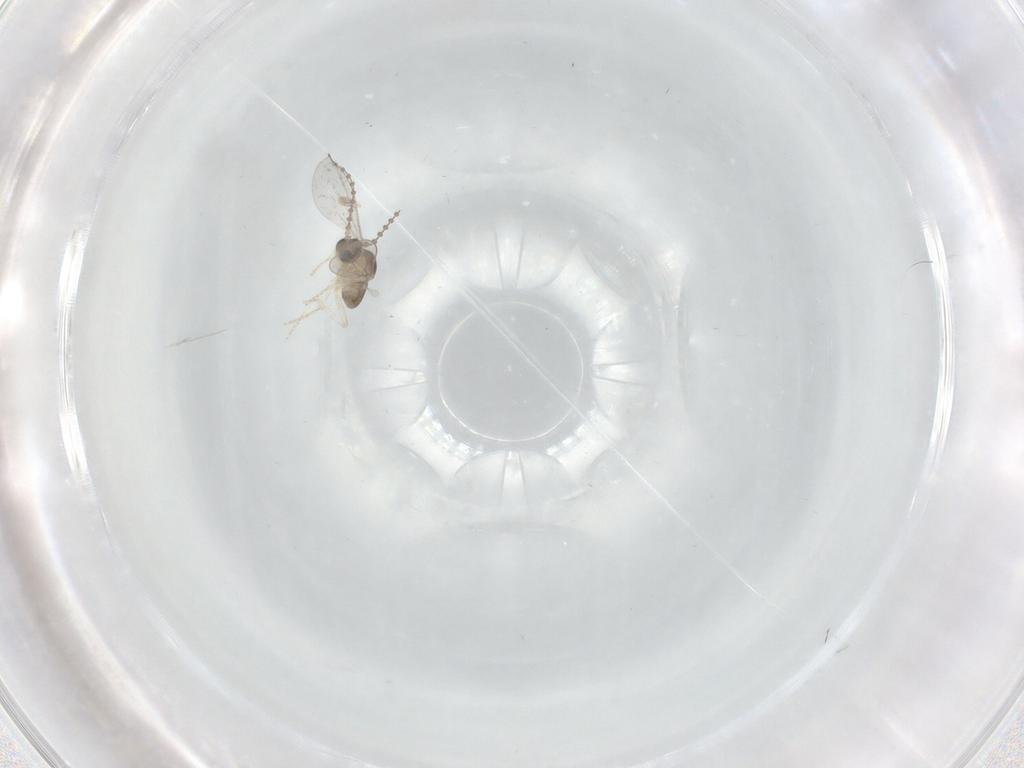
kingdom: Animalia
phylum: Arthropoda
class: Insecta
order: Diptera
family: Cecidomyiidae
